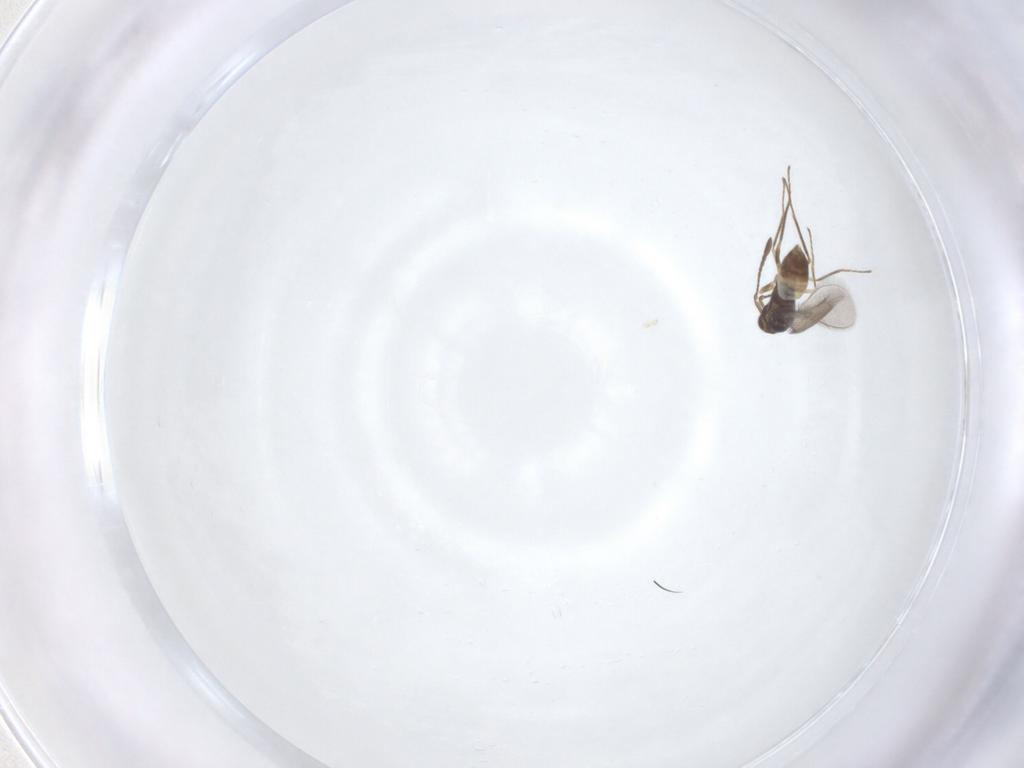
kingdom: Animalia
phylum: Arthropoda
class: Insecta
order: Hymenoptera
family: Mymaridae
